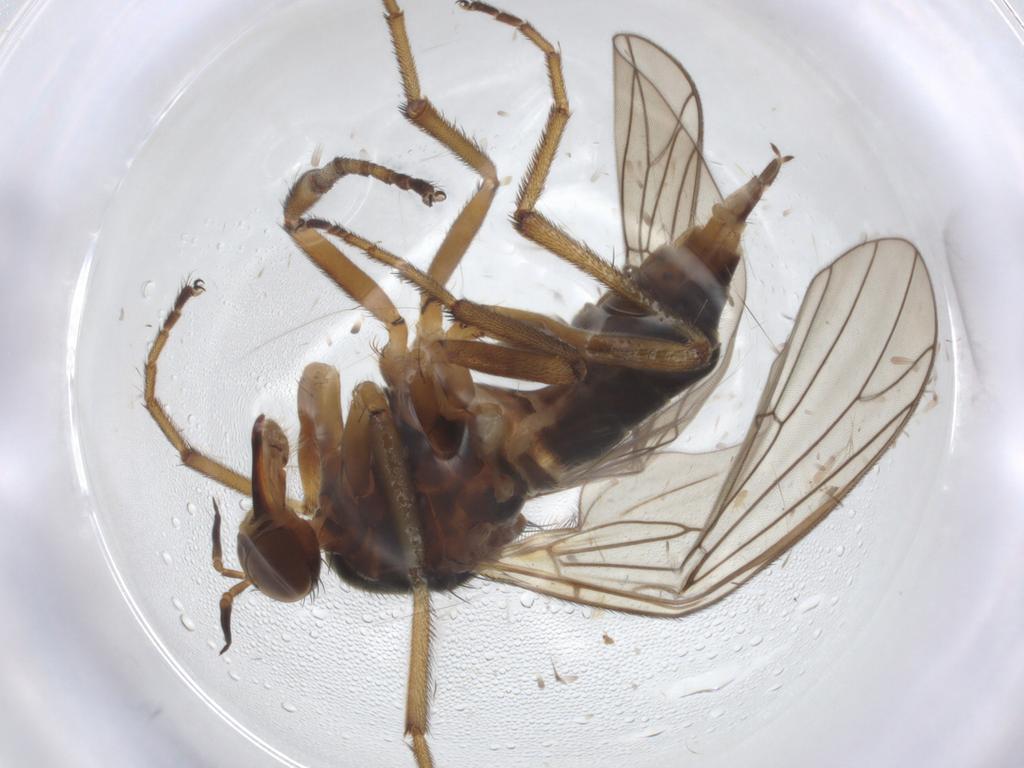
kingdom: Animalia
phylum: Arthropoda
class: Insecta
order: Diptera
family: Empididae
